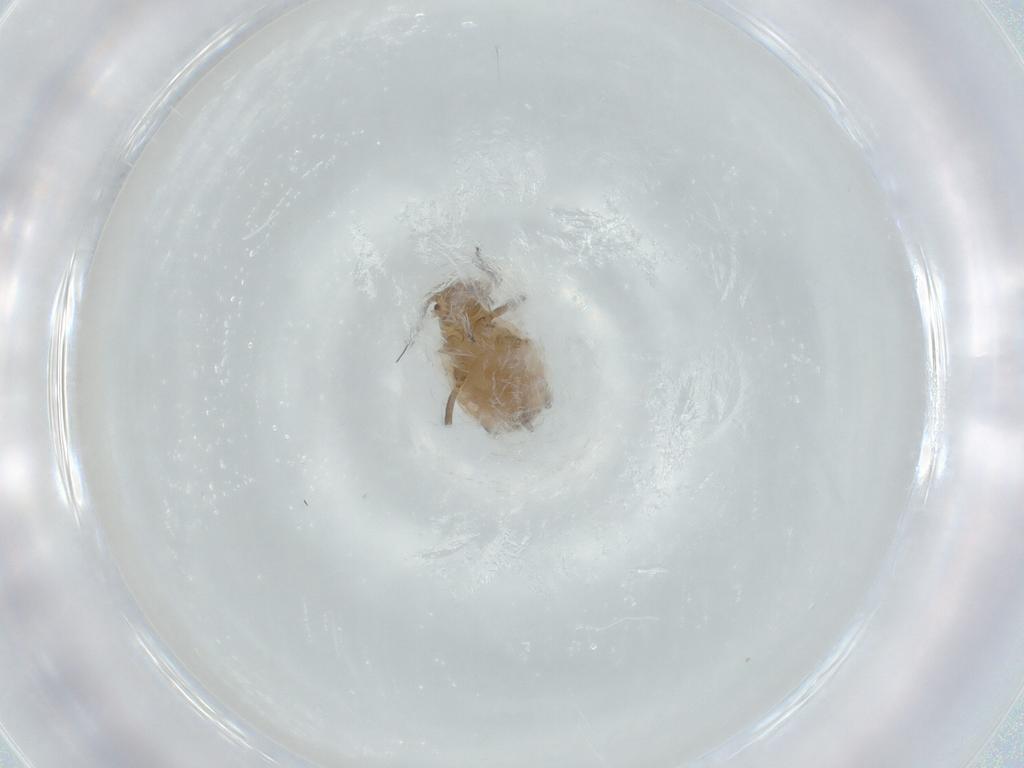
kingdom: Animalia
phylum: Arthropoda
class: Insecta
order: Hemiptera
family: Aphididae
